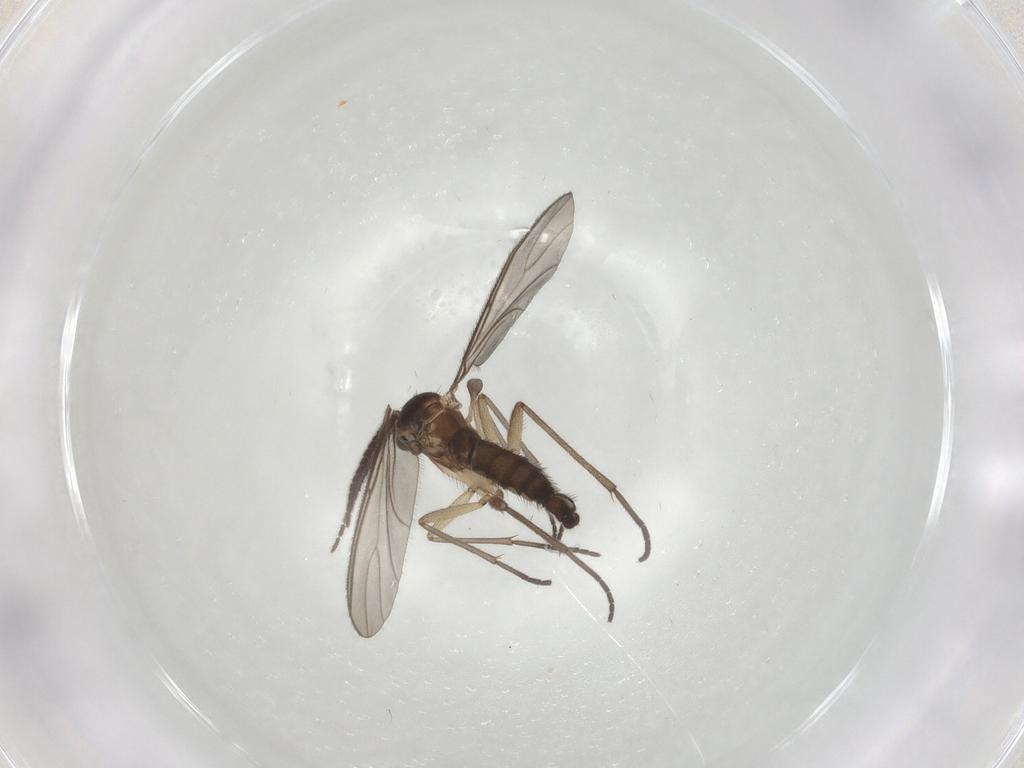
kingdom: Animalia
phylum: Arthropoda
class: Insecta
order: Diptera
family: Sciaridae
